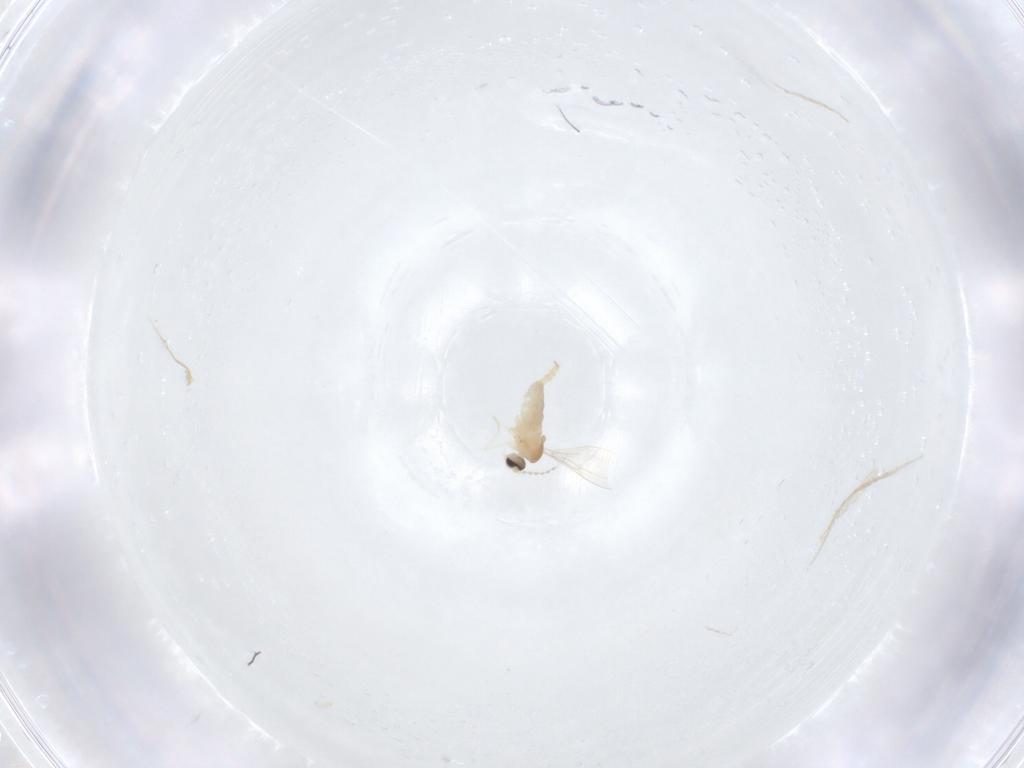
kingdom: Animalia
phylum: Arthropoda
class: Insecta
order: Diptera
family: Cecidomyiidae
